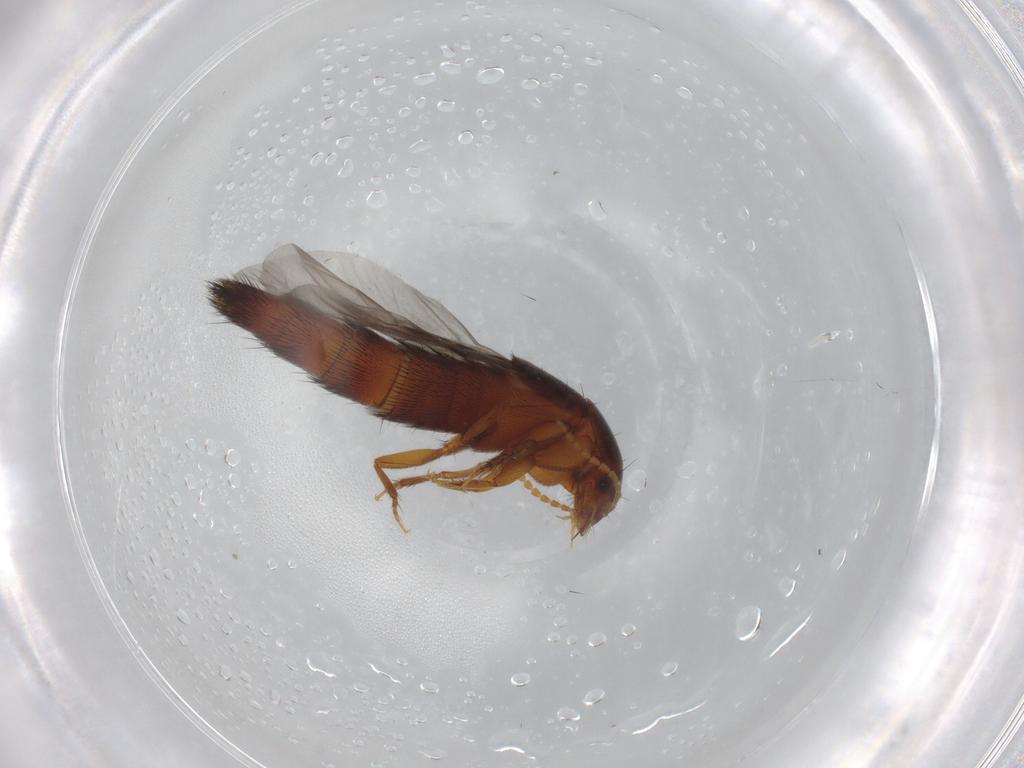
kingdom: Animalia
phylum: Arthropoda
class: Insecta
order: Coleoptera
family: Staphylinidae
